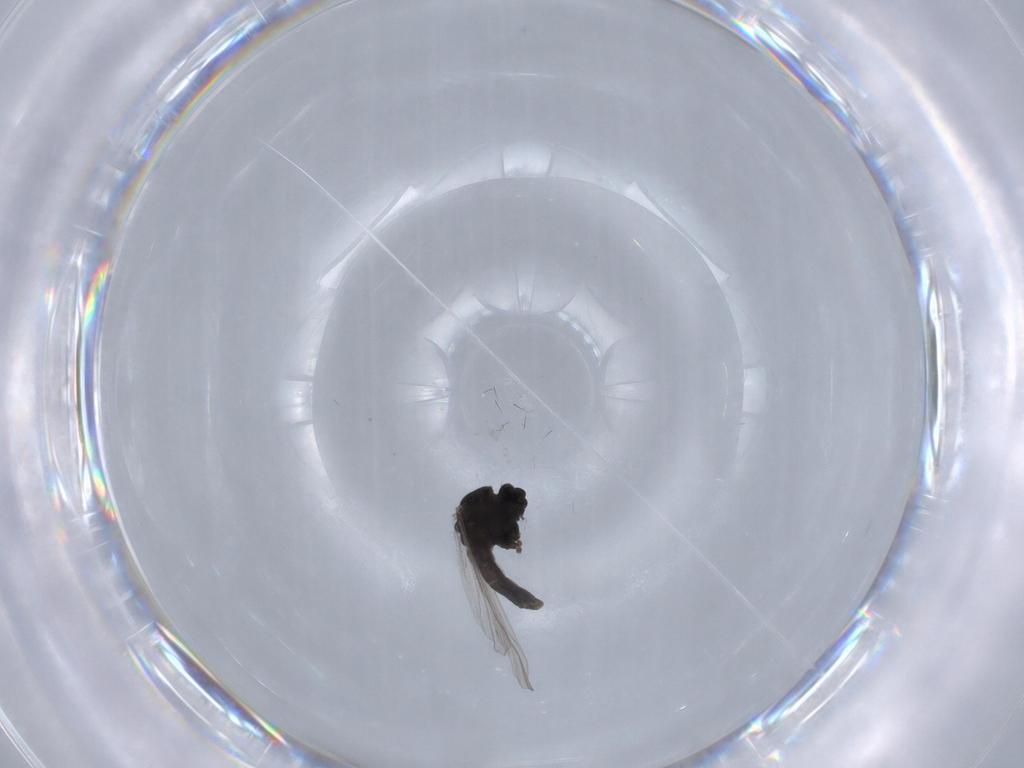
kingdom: Animalia
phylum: Arthropoda
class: Insecta
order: Diptera
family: Chironomidae
